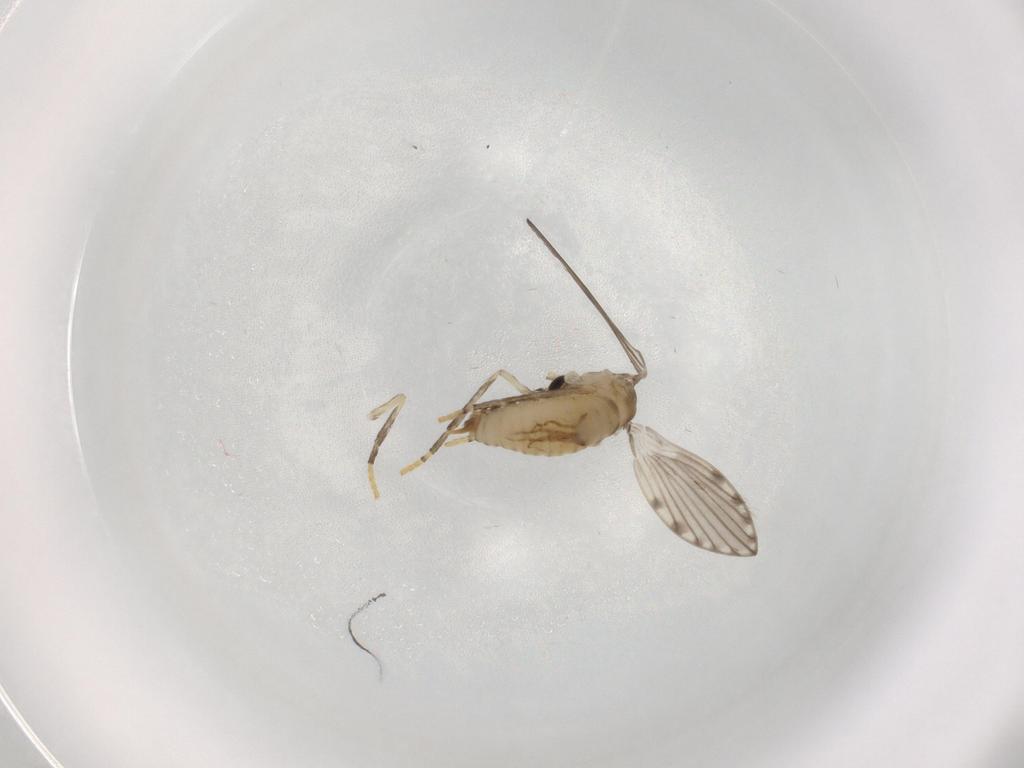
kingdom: Animalia
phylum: Arthropoda
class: Insecta
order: Diptera
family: Psychodidae
